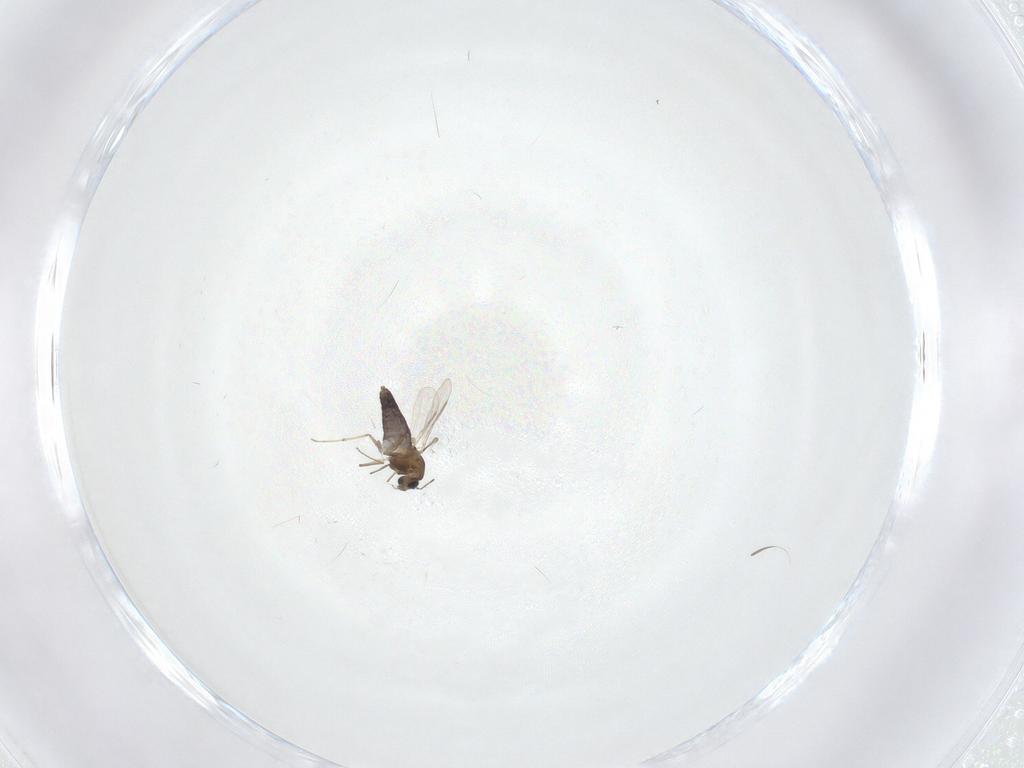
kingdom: Animalia
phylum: Arthropoda
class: Insecta
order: Diptera
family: Chironomidae
